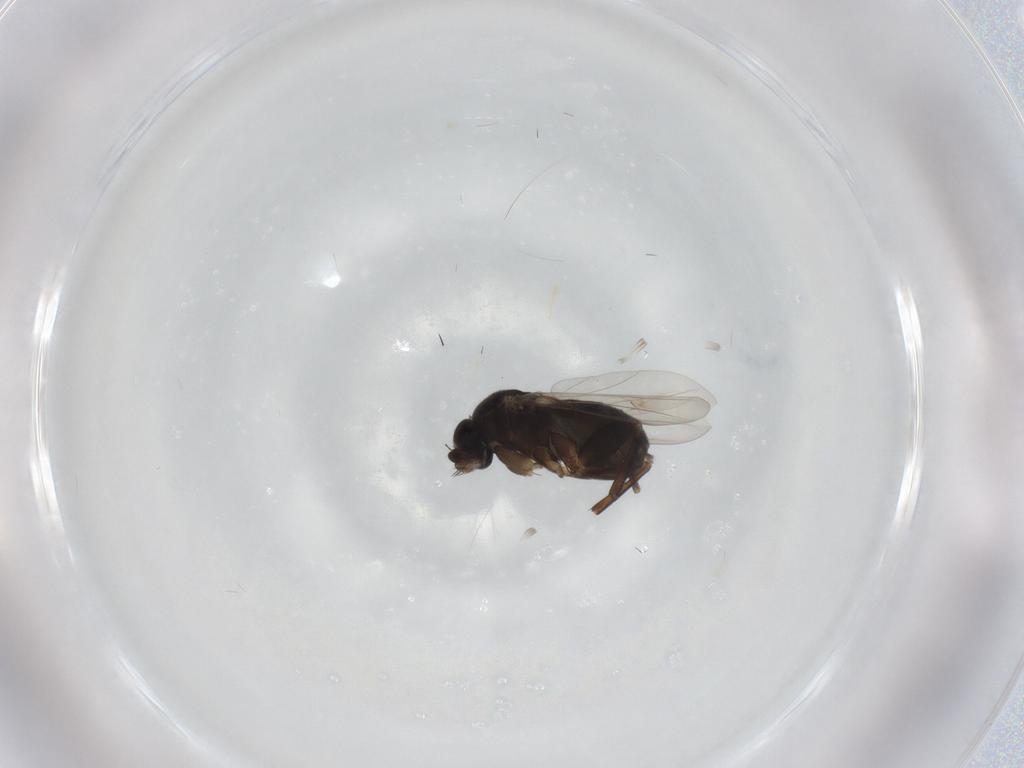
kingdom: Animalia
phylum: Arthropoda
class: Insecta
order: Diptera
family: Phoridae
